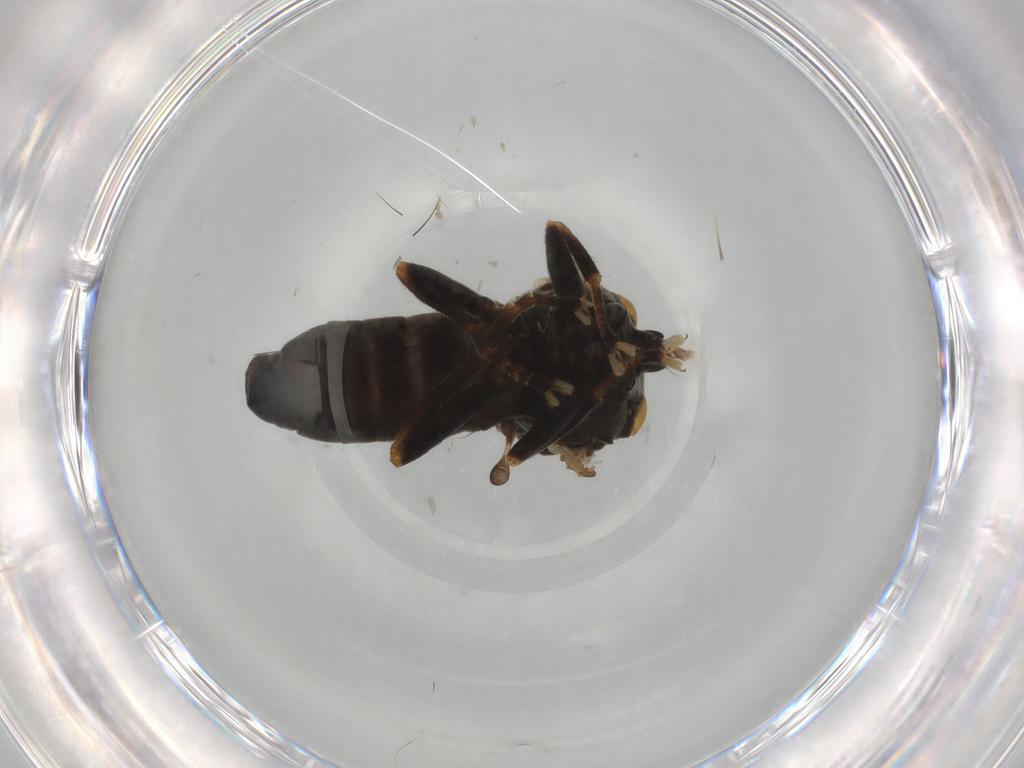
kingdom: Animalia
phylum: Arthropoda
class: Insecta
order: Diptera
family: Pipunculidae
